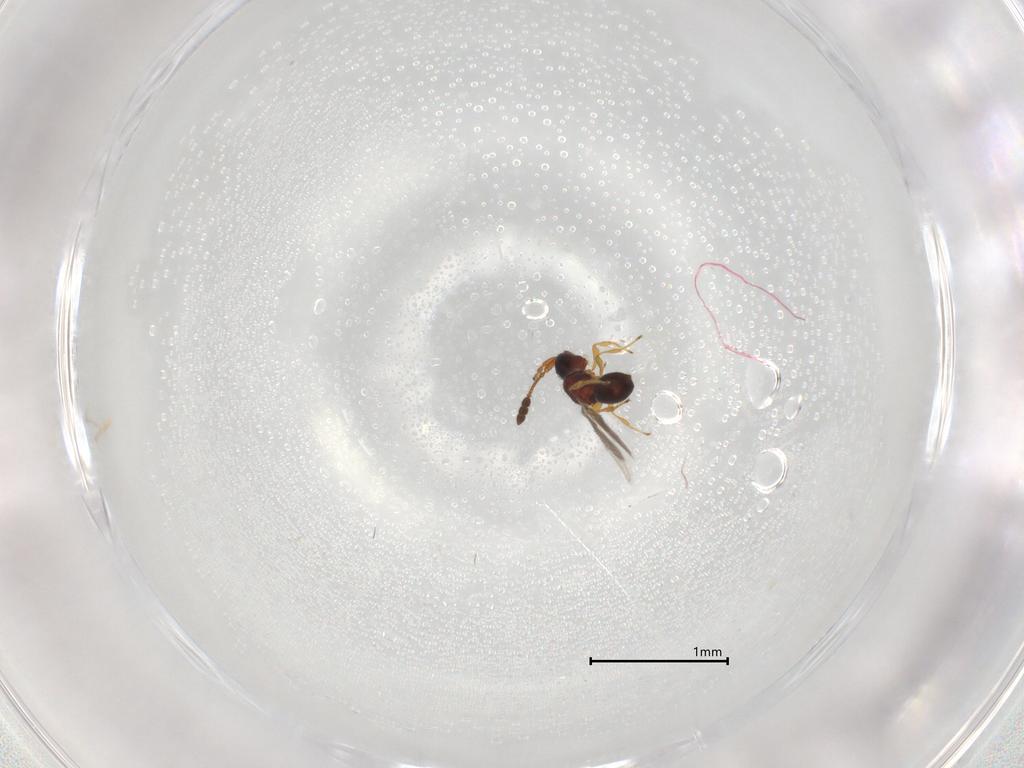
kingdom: Animalia
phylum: Arthropoda
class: Insecta
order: Hymenoptera
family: Diapriidae
